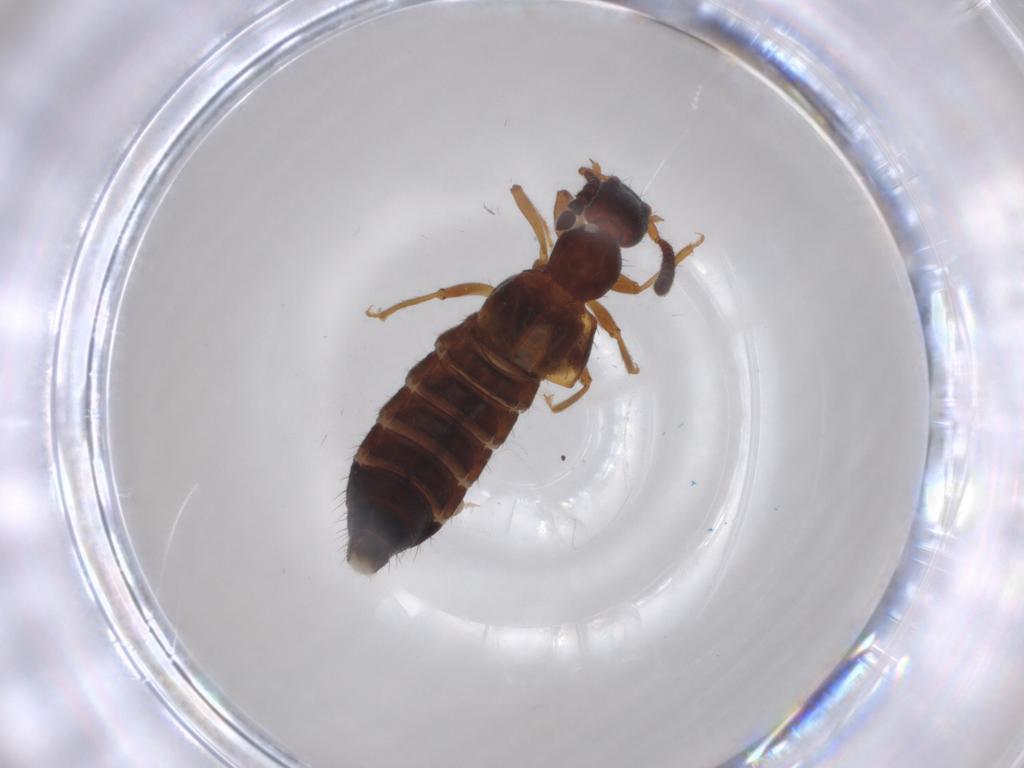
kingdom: Animalia
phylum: Arthropoda
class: Insecta
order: Coleoptera
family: Staphylinidae
